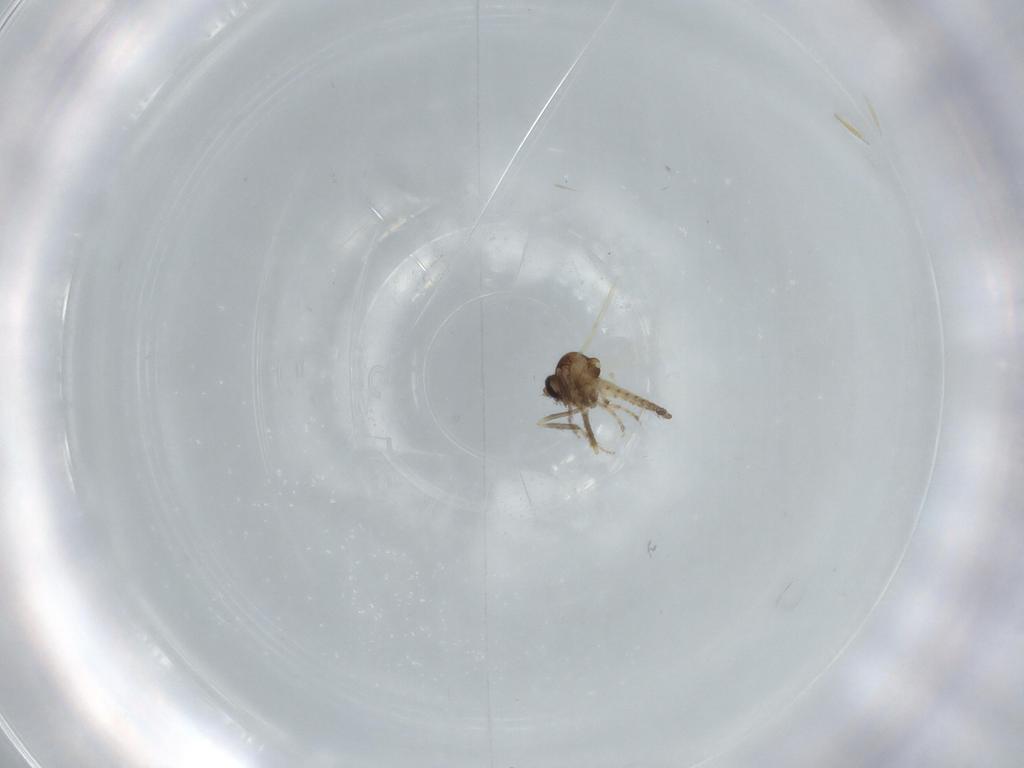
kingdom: Animalia
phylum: Arthropoda
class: Insecta
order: Diptera
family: Ceratopogonidae
